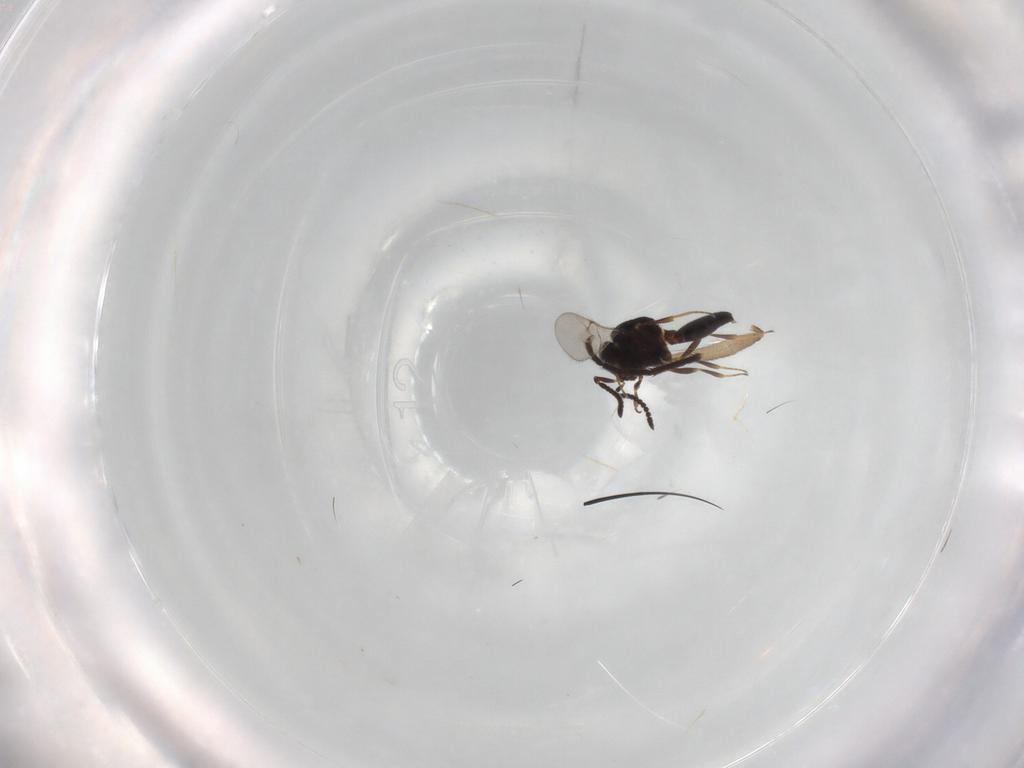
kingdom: Animalia
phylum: Arthropoda
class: Insecta
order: Hymenoptera
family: Scelionidae
